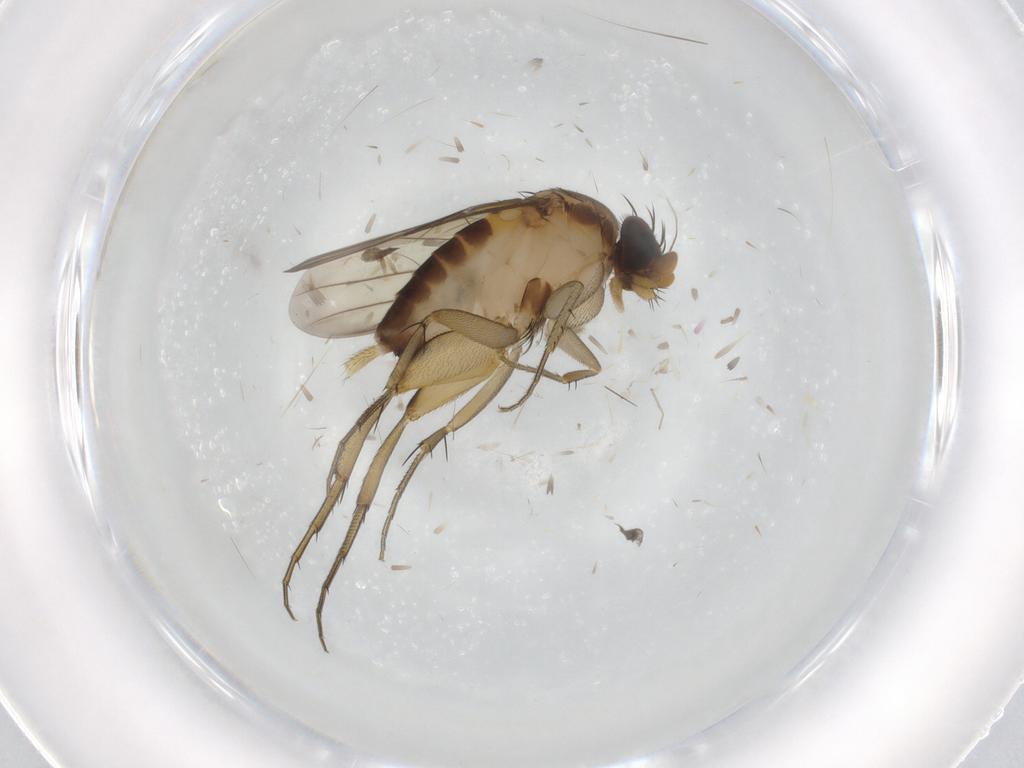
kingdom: Animalia
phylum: Arthropoda
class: Insecta
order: Diptera
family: Phoridae
